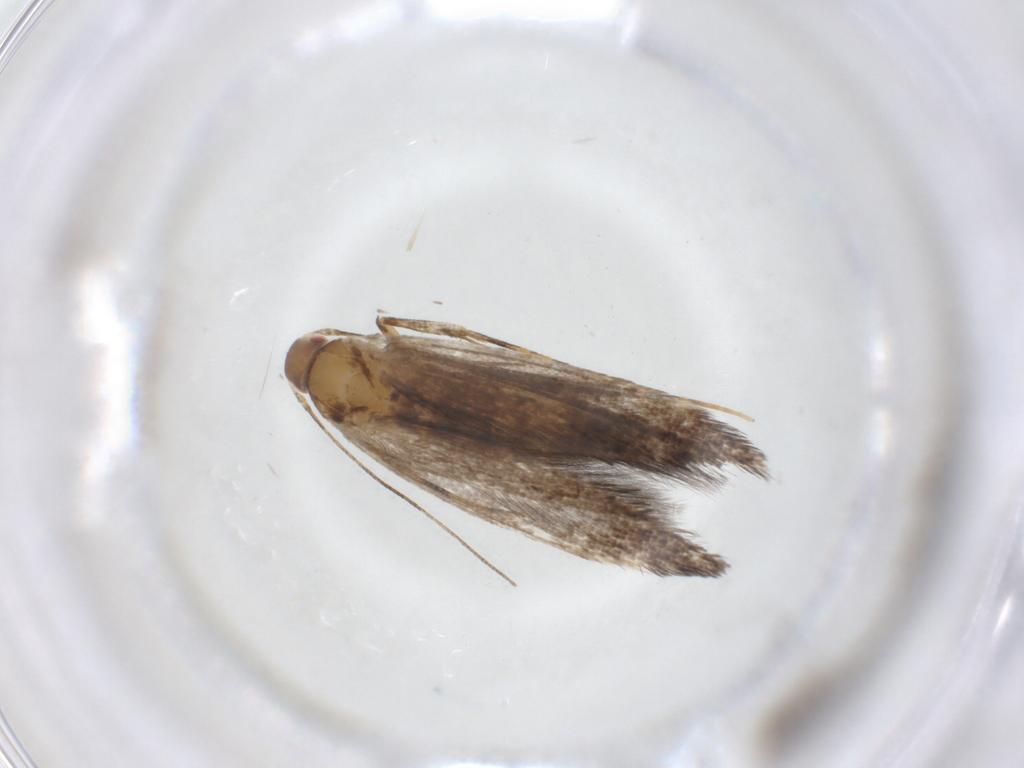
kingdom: Animalia
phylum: Arthropoda
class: Insecta
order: Lepidoptera
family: Cosmopterigidae
